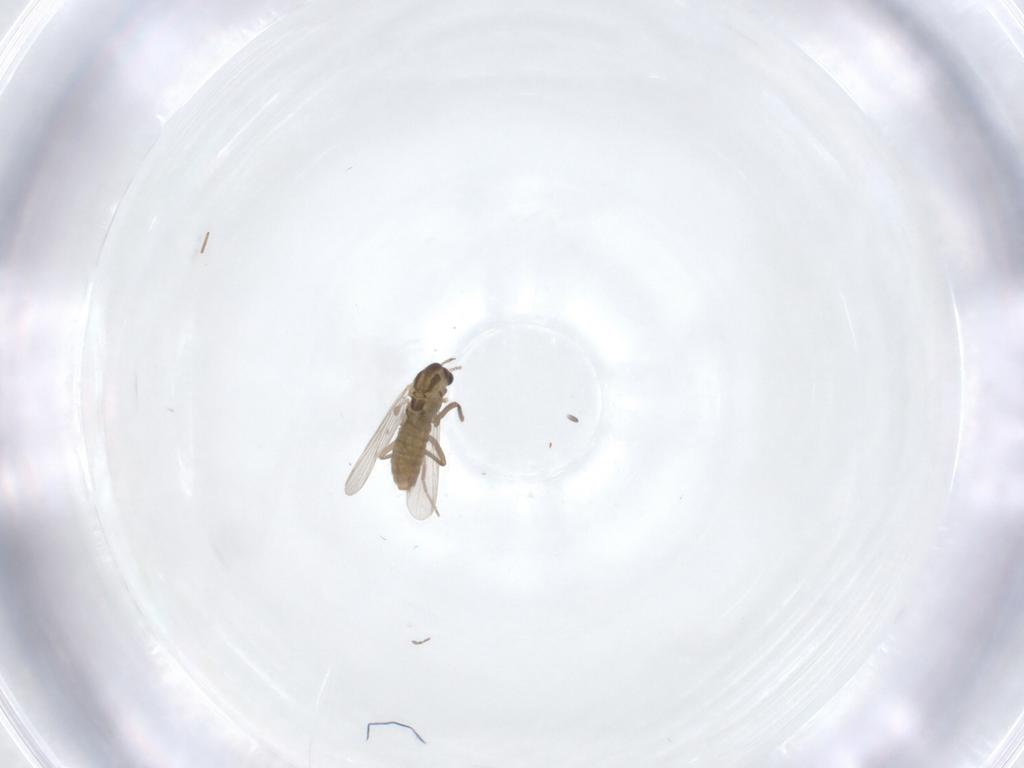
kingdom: Animalia
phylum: Arthropoda
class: Insecta
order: Diptera
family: Chironomidae
